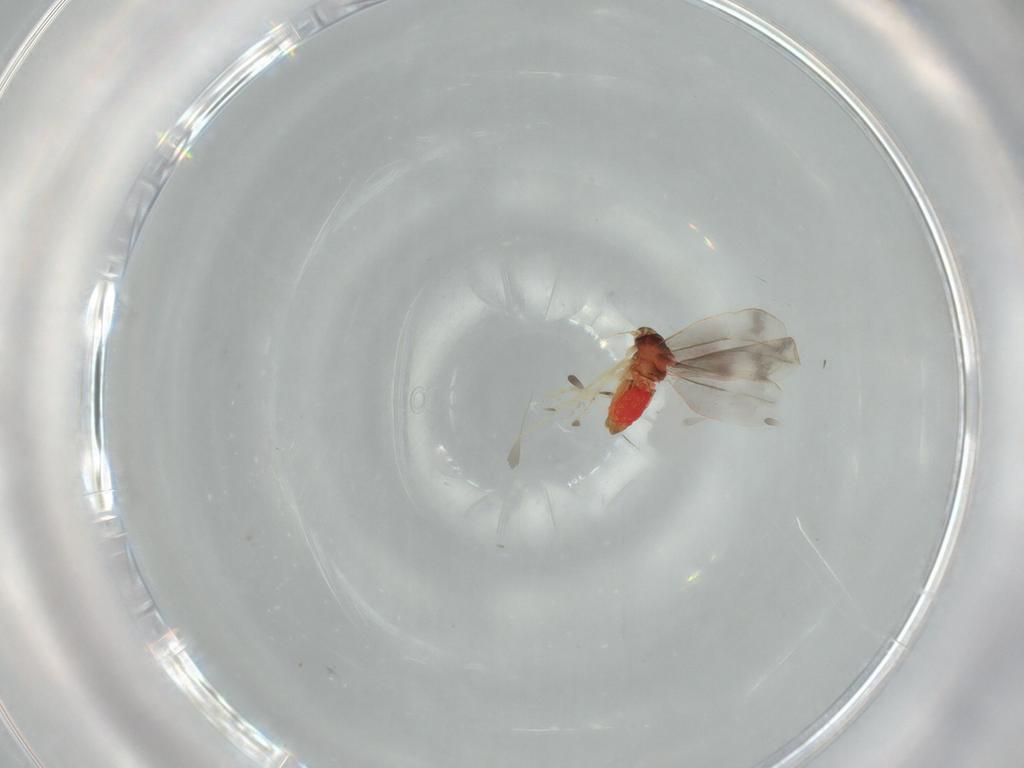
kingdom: Animalia
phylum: Arthropoda
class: Insecta
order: Hemiptera
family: Aleyrodidae
